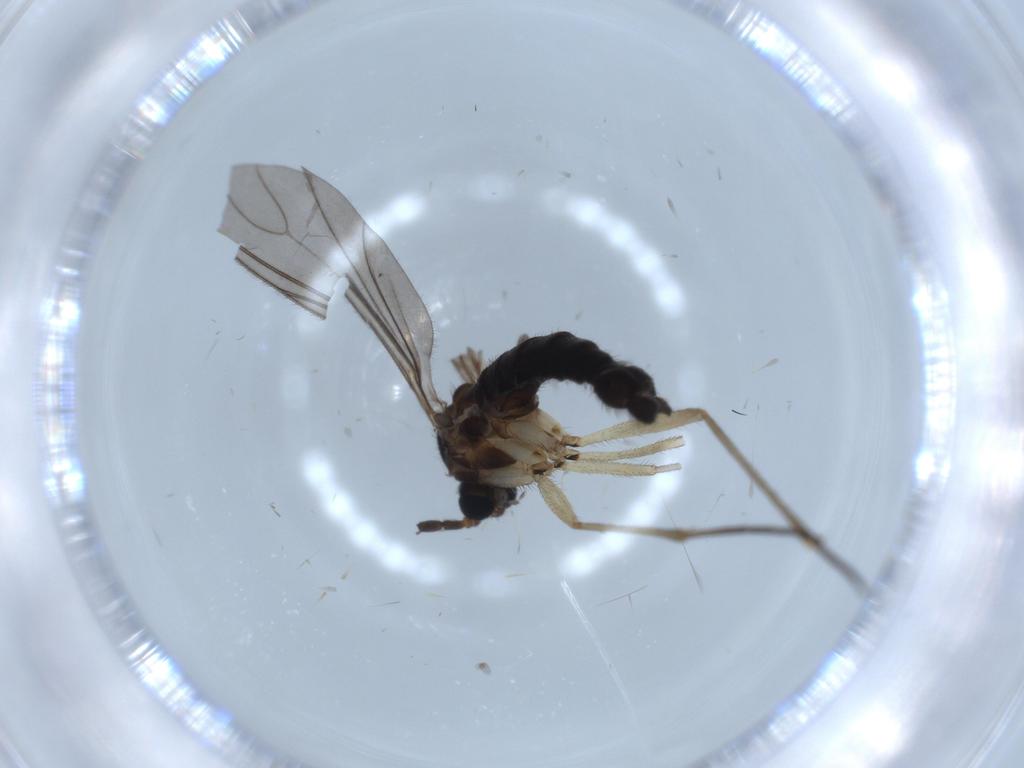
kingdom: Animalia
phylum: Arthropoda
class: Insecta
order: Diptera
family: Sciaridae
